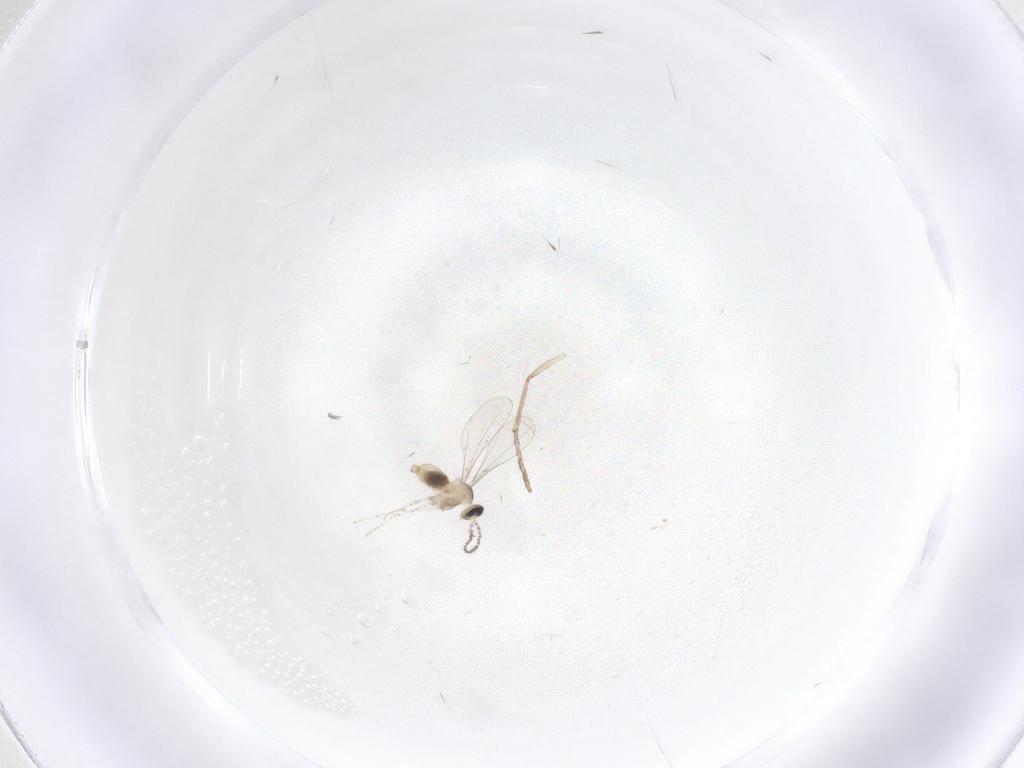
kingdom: Animalia
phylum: Arthropoda
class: Insecta
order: Diptera
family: Cecidomyiidae
